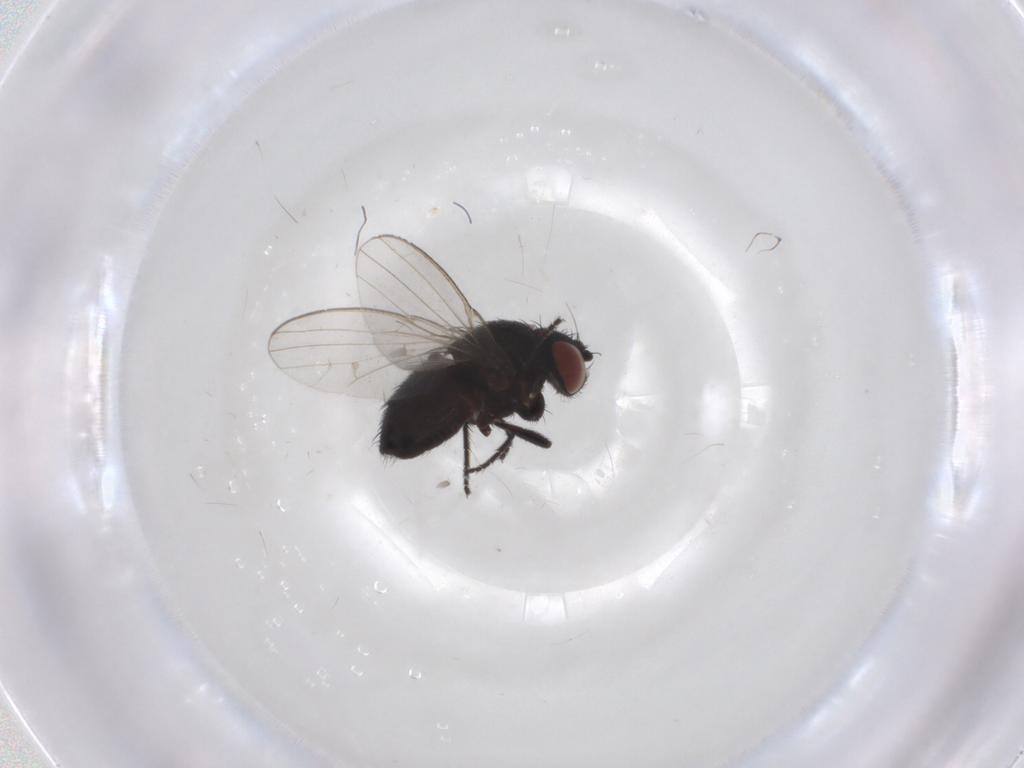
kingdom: Animalia
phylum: Arthropoda
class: Insecta
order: Diptera
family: Milichiidae
